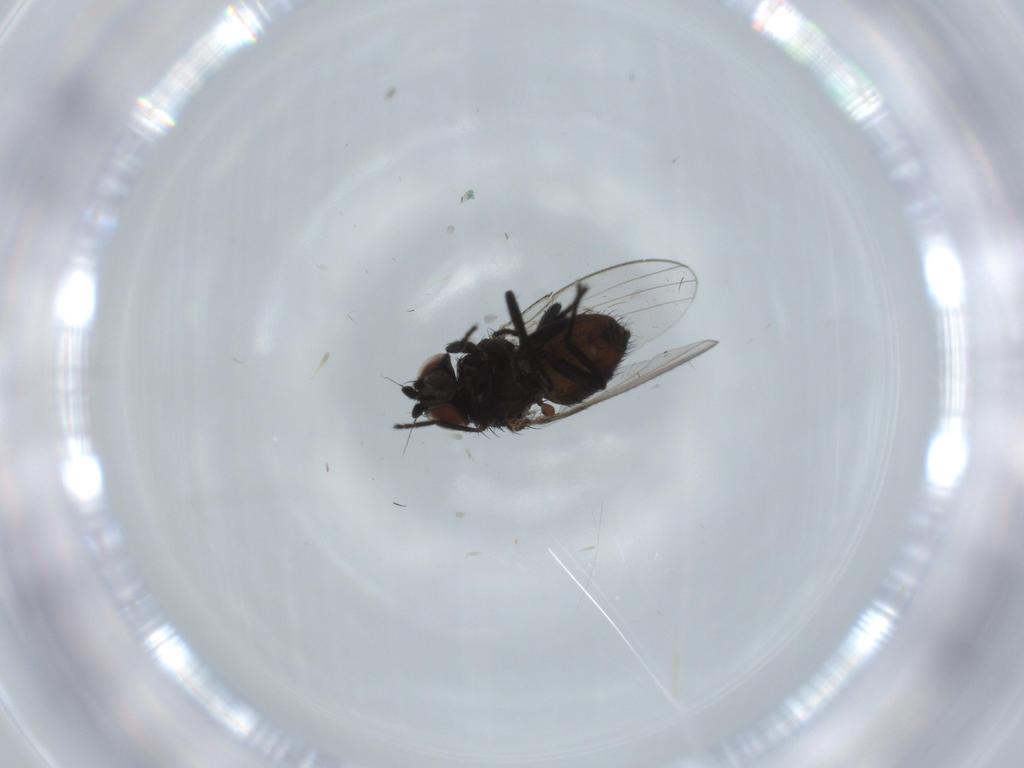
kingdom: Animalia
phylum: Arthropoda
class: Insecta
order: Diptera
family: Milichiidae
